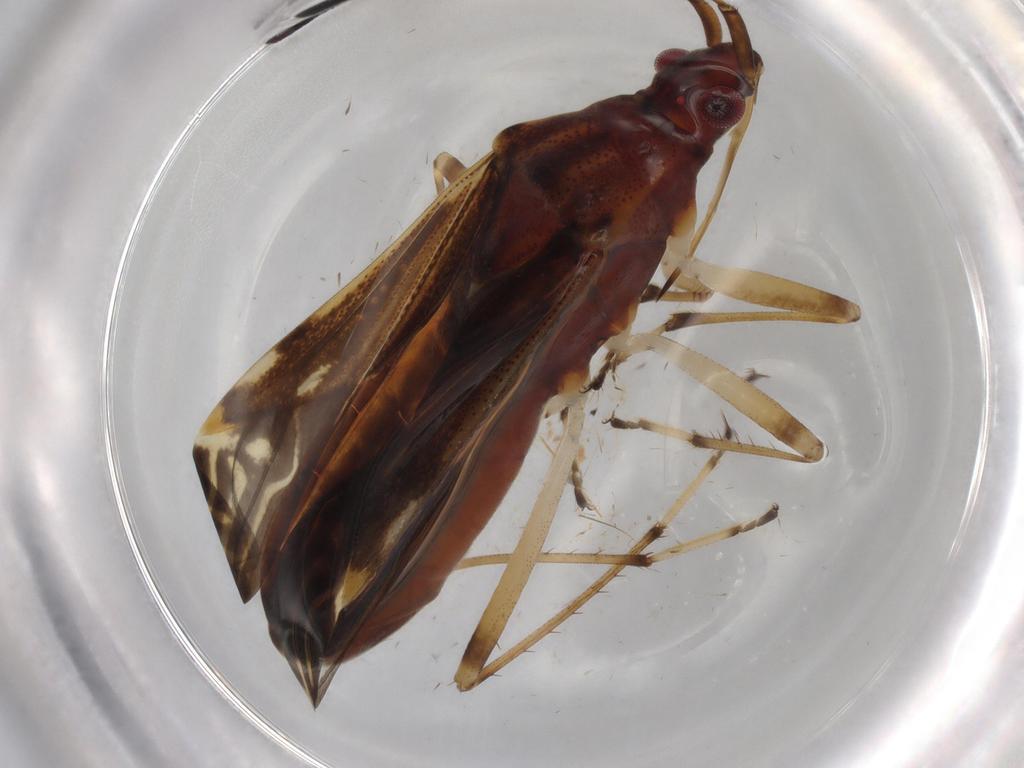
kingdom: Animalia
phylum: Arthropoda
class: Insecta
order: Hemiptera
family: Rhyparochromidae
